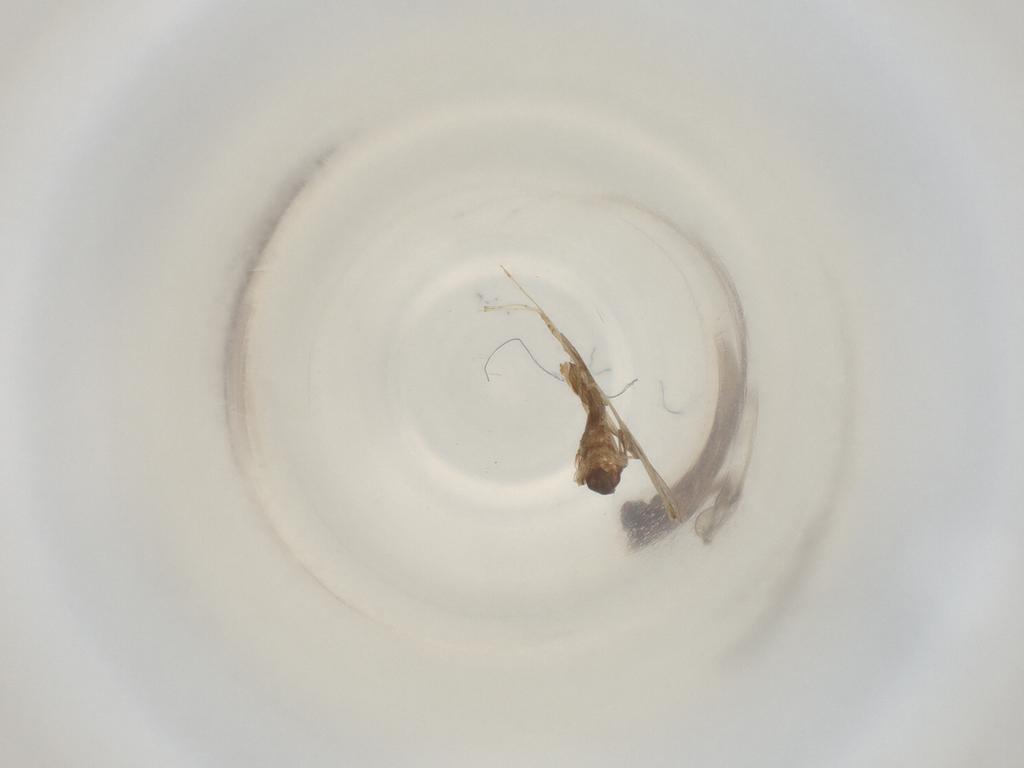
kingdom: Animalia
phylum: Arthropoda
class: Insecta
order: Diptera
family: Cecidomyiidae
